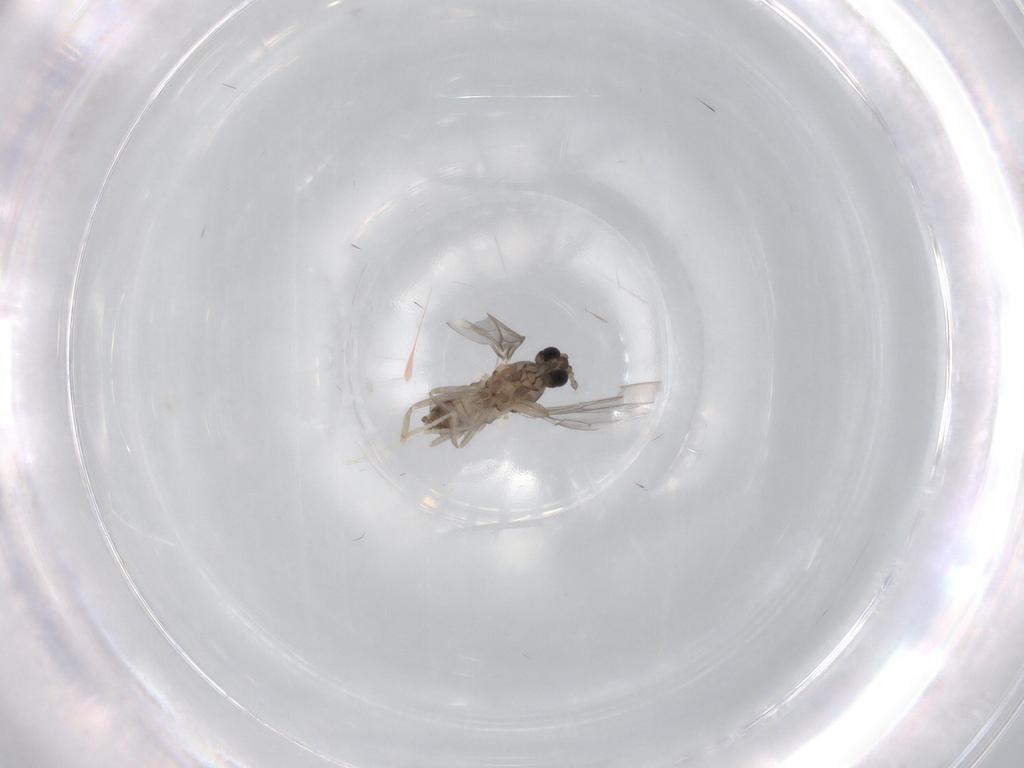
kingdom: Animalia
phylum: Arthropoda
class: Insecta
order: Diptera
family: Cecidomyiidae
